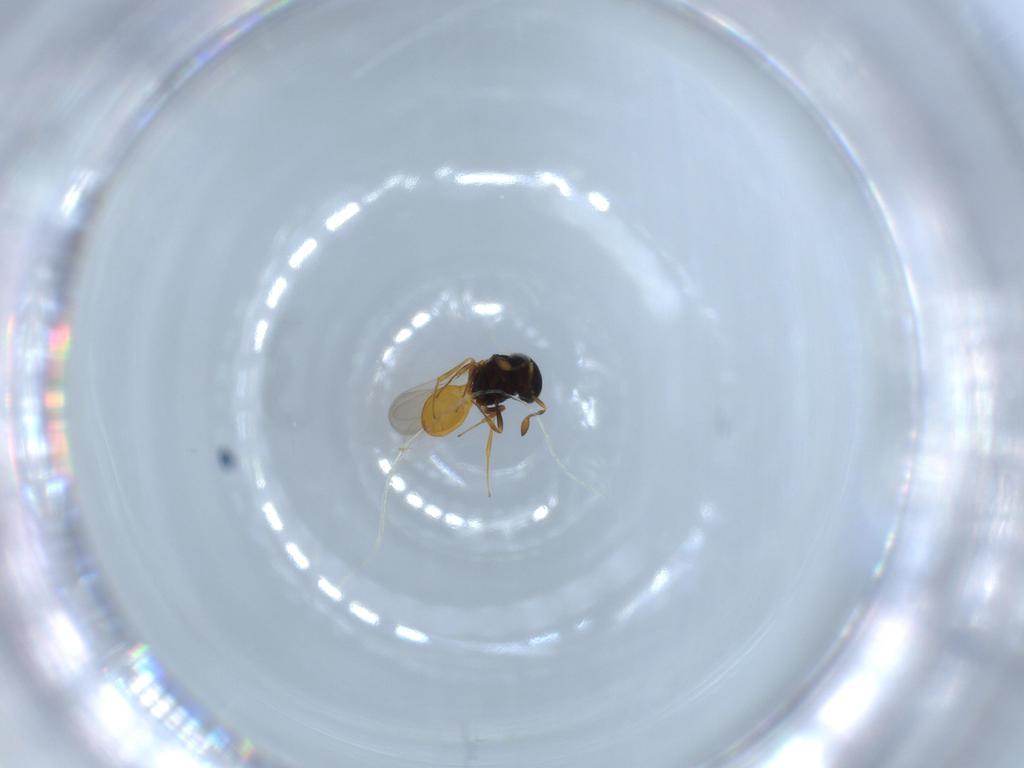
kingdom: Animalia
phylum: Arthropoda
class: Insecta
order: Hymenoptera
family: Scelionidae
